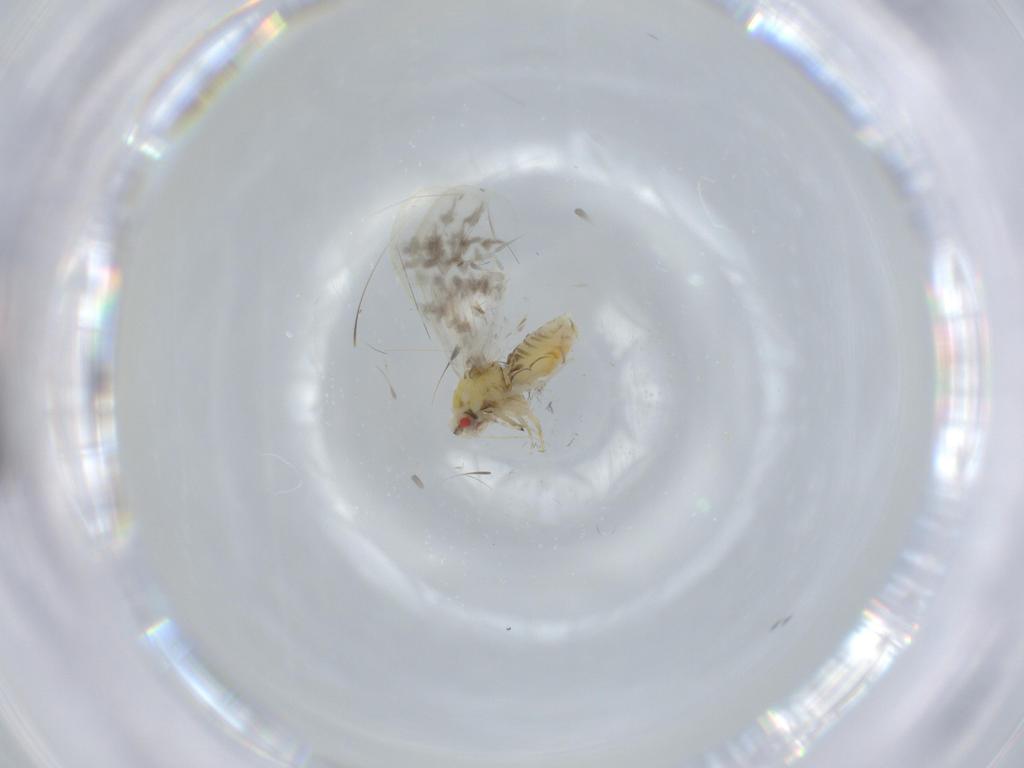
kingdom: Animalia
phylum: Arthropoda
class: Insecta
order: Hemiptera
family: Aleyrodidae
